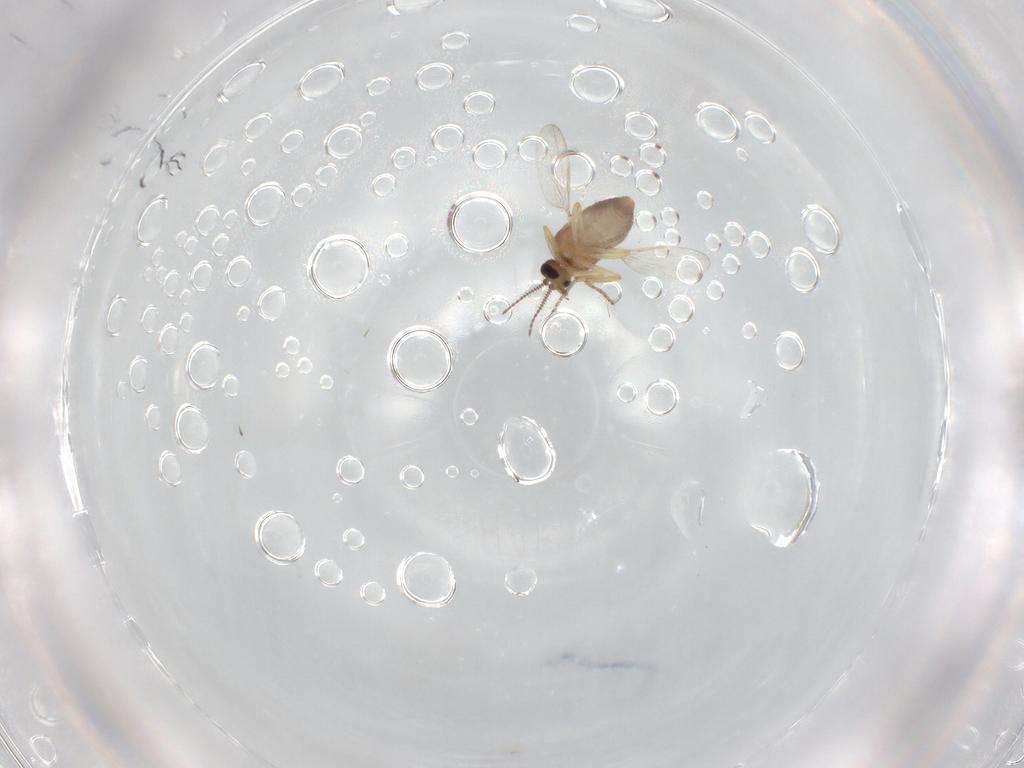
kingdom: Animalia
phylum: Arthropoda
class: Insecta
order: Diptera
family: Ceratopogonidae
